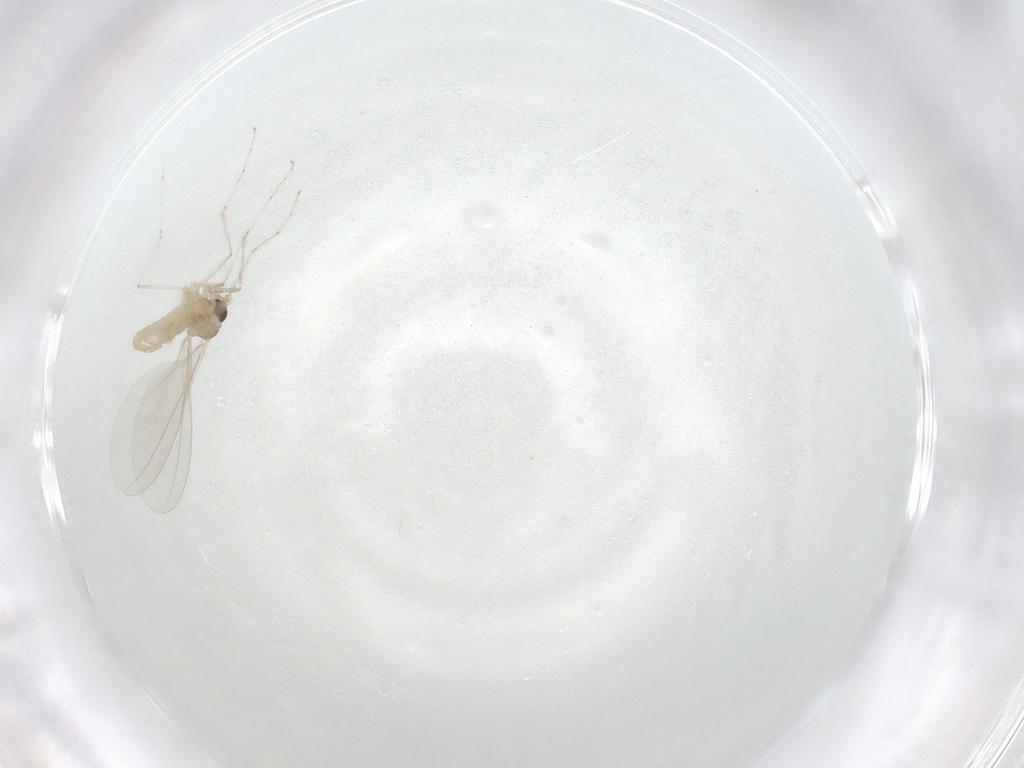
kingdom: Animalia
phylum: Arthropoda
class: Insecta
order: Diptera
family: Cecidomyiidae
